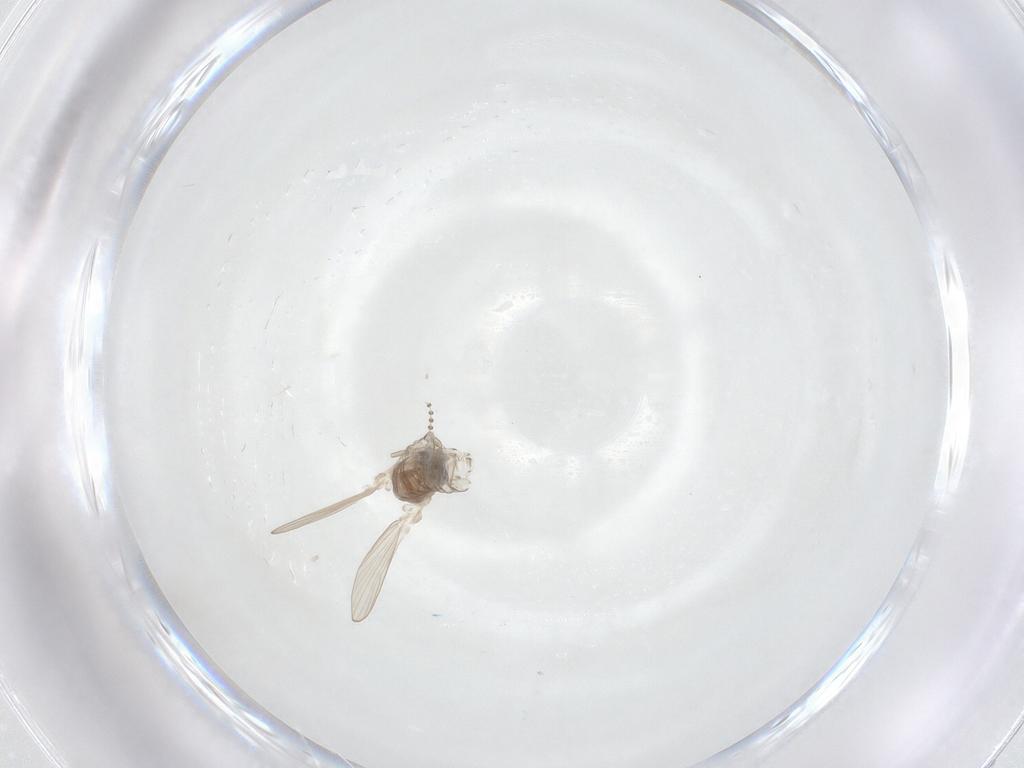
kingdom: Animalia
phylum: Arthropoda
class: Insecta
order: Diptera
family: Psychodidae
